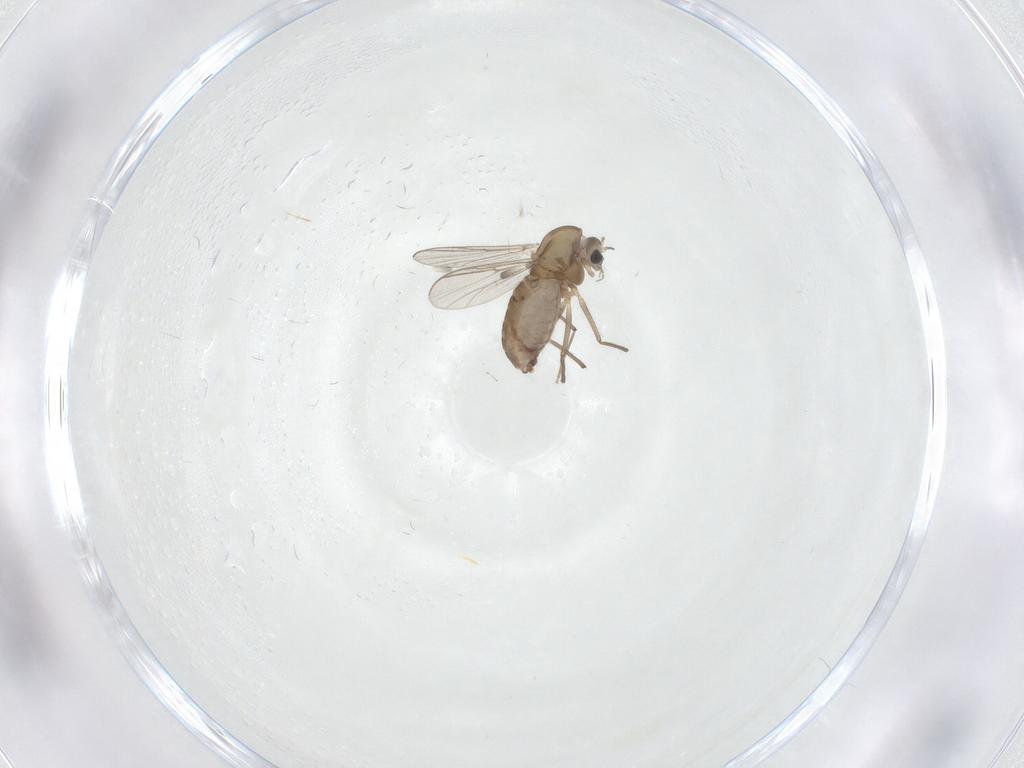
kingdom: Animalia
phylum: Arthropoda
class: Insecta
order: Diptera
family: Chironomidae
